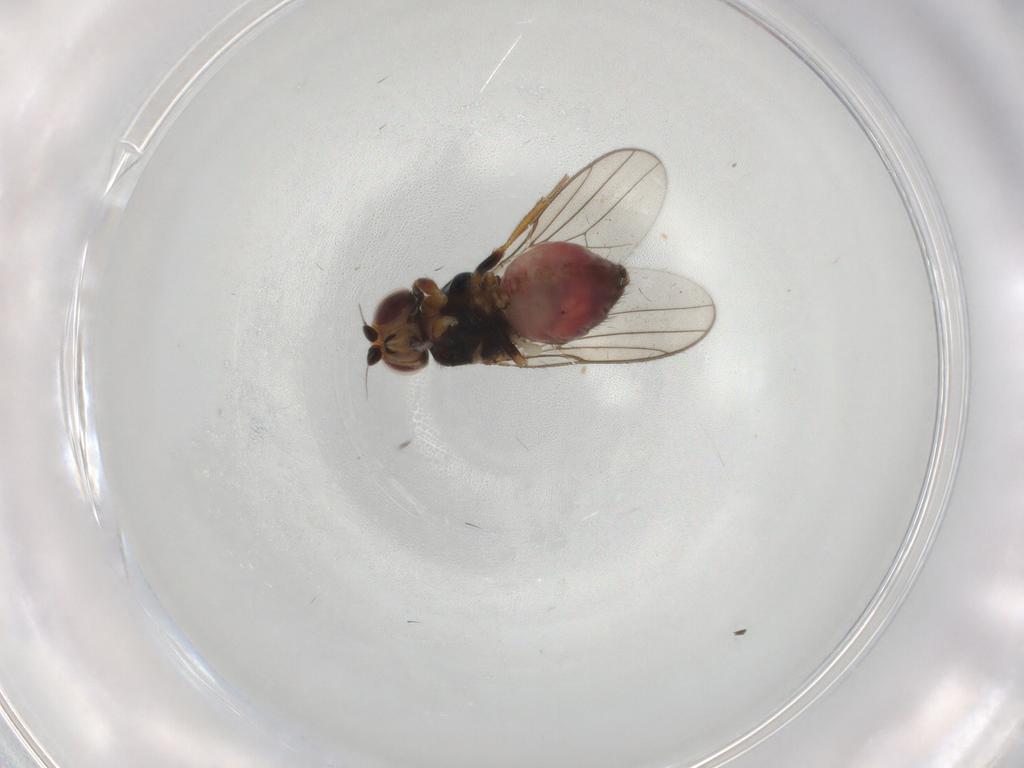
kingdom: Animalia
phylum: Arthropoda
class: Insecta
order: Diptera
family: Chloropidae
